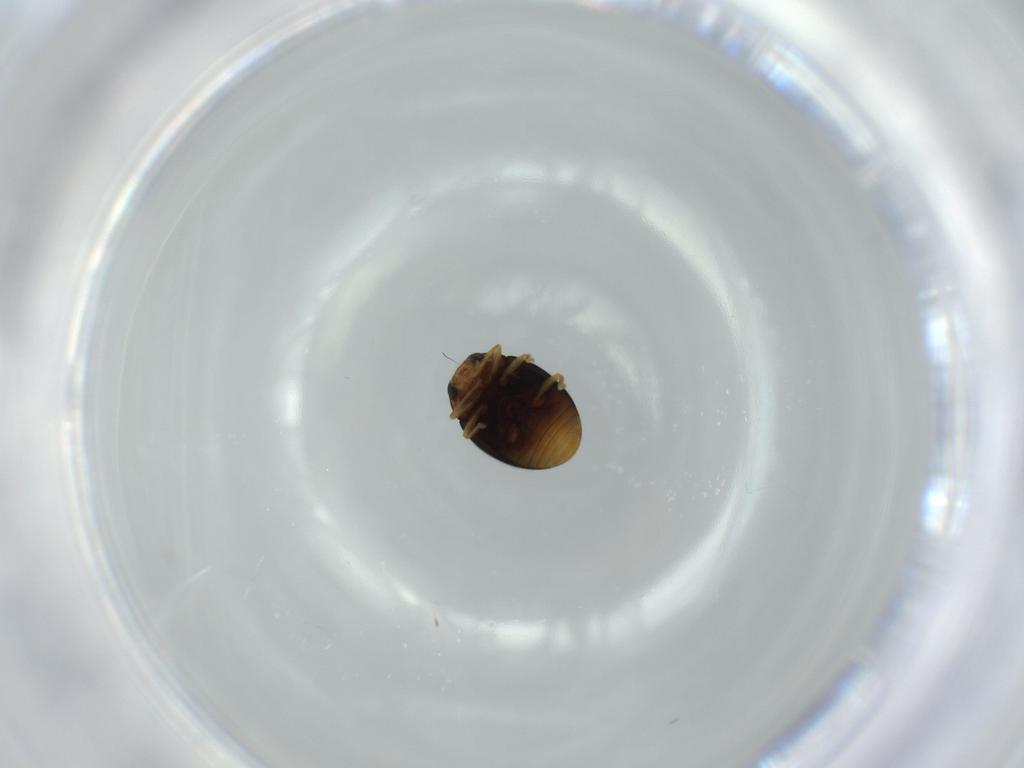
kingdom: Animalia
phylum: Arthropoda
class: Insecta
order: Coleoptera
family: Coccinellidae
